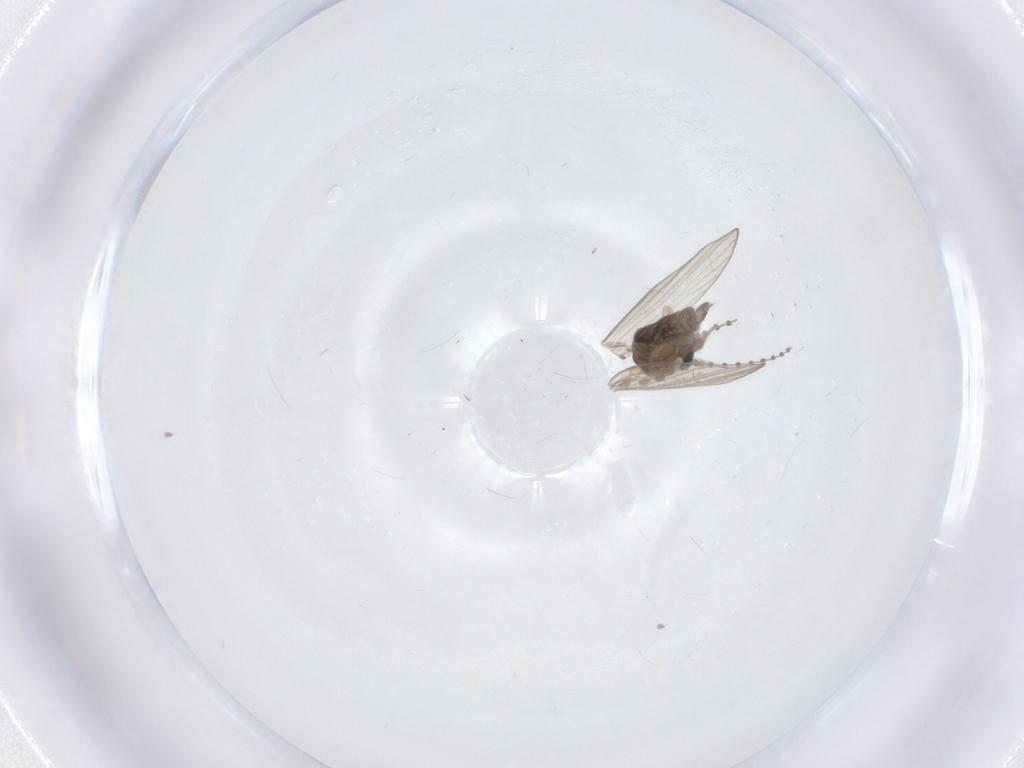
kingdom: Animalia
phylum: Arthropoda
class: Insecta
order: Diptera
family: Psychodidae
